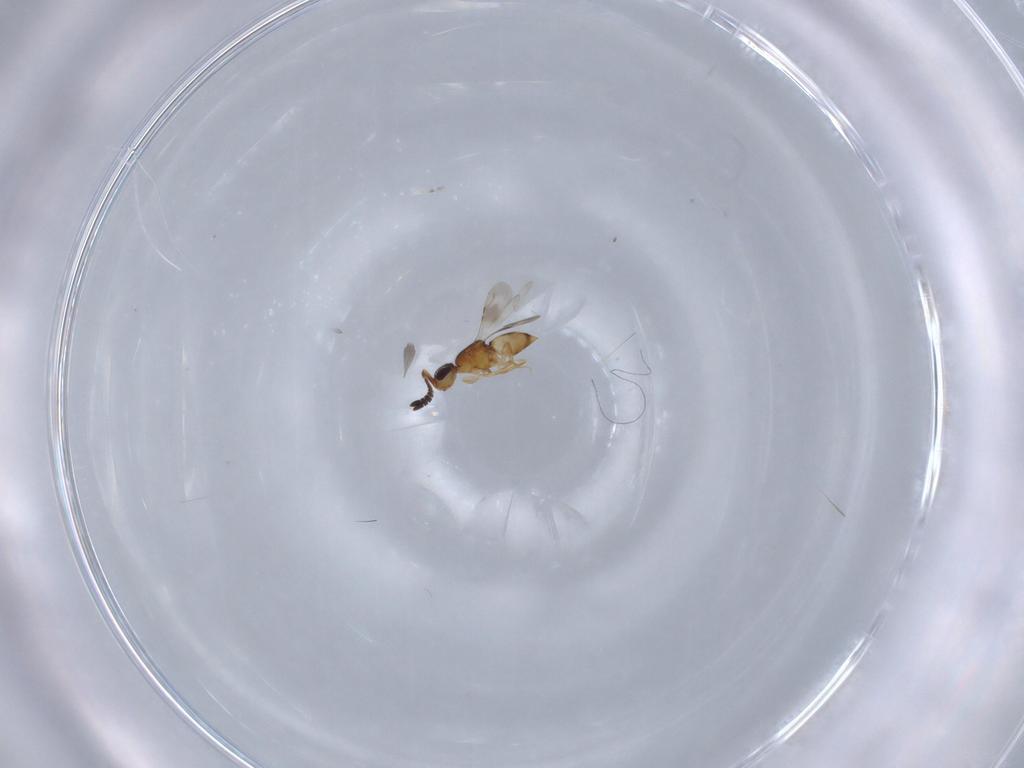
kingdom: Animalia
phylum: Arthropoda
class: Insecta
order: Hymenoptera
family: Ceraphronidae
